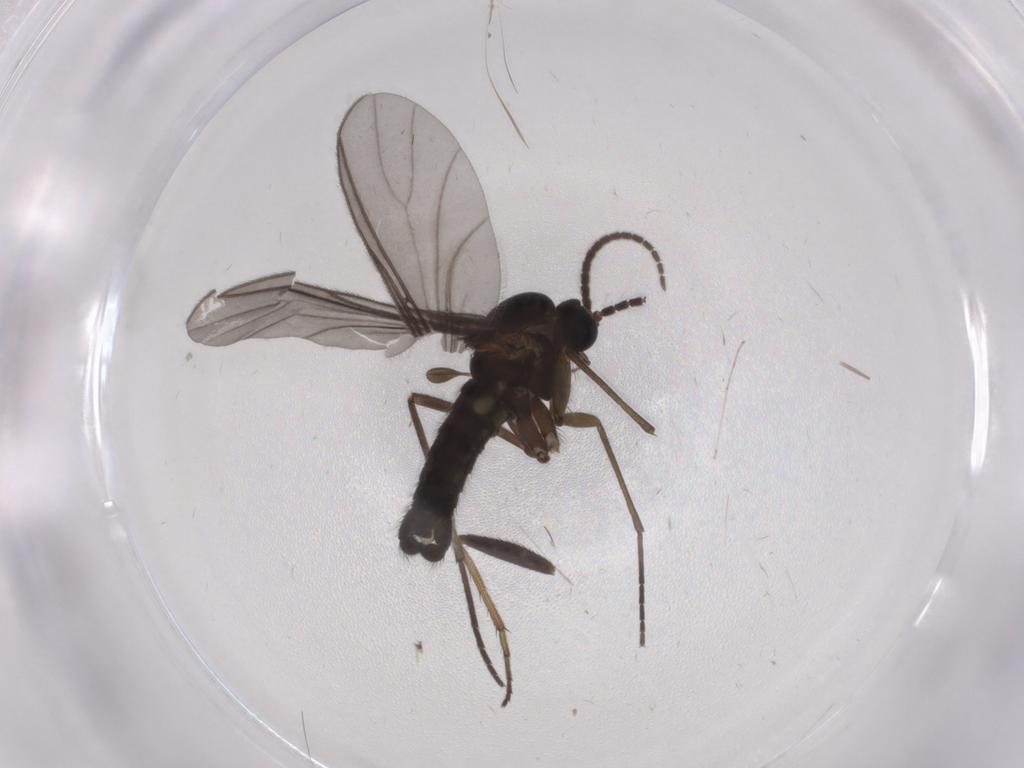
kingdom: Animalia
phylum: Arthropoda
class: Insecta
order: Diptera
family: Sciaridae
